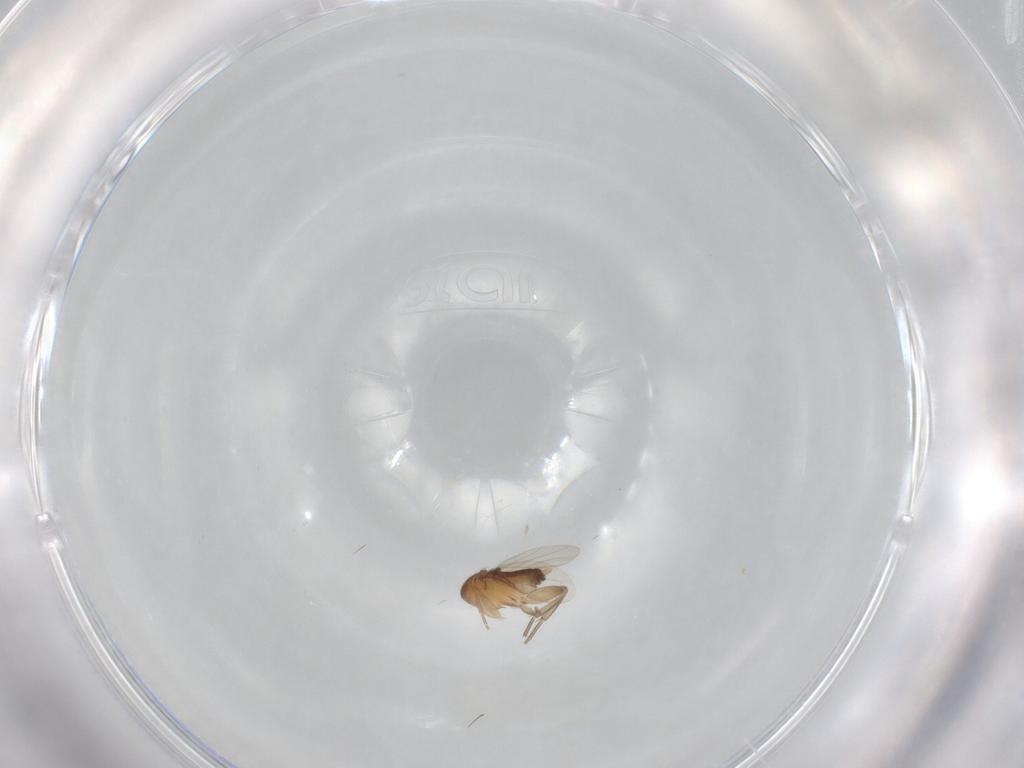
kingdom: Animalia
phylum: Arthropoda
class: Insecta
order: Diptera
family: Phoridae
